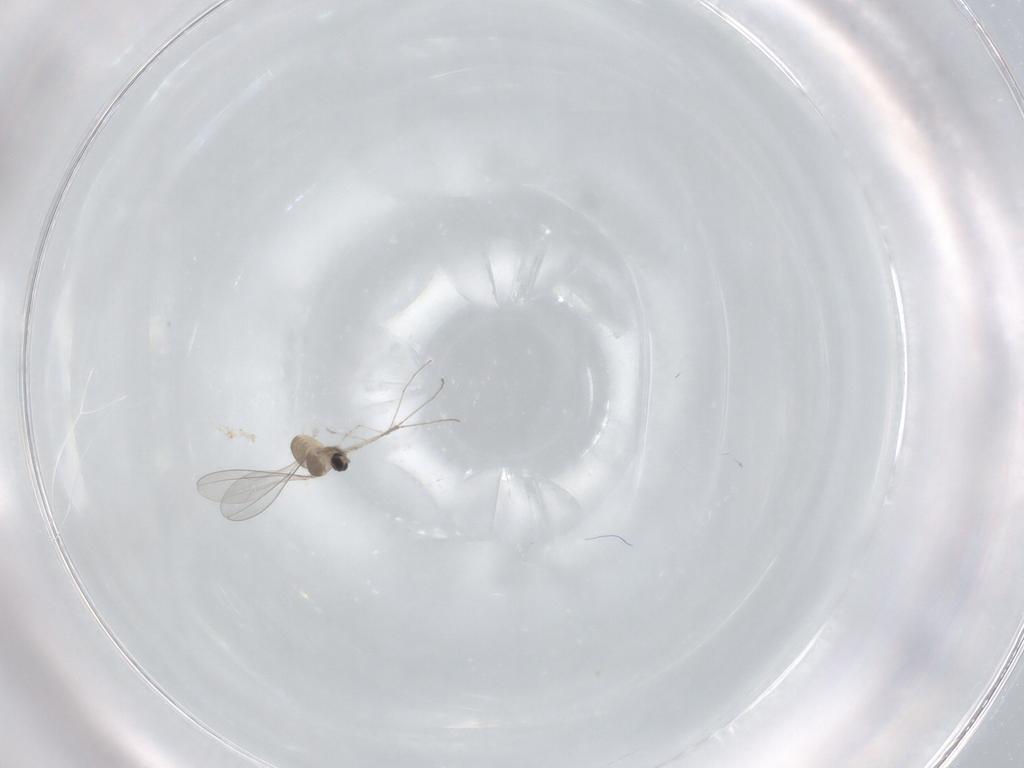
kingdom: Animalia
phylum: Arthropoda
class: Insecta
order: Diptera
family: Cecidomyiidae
